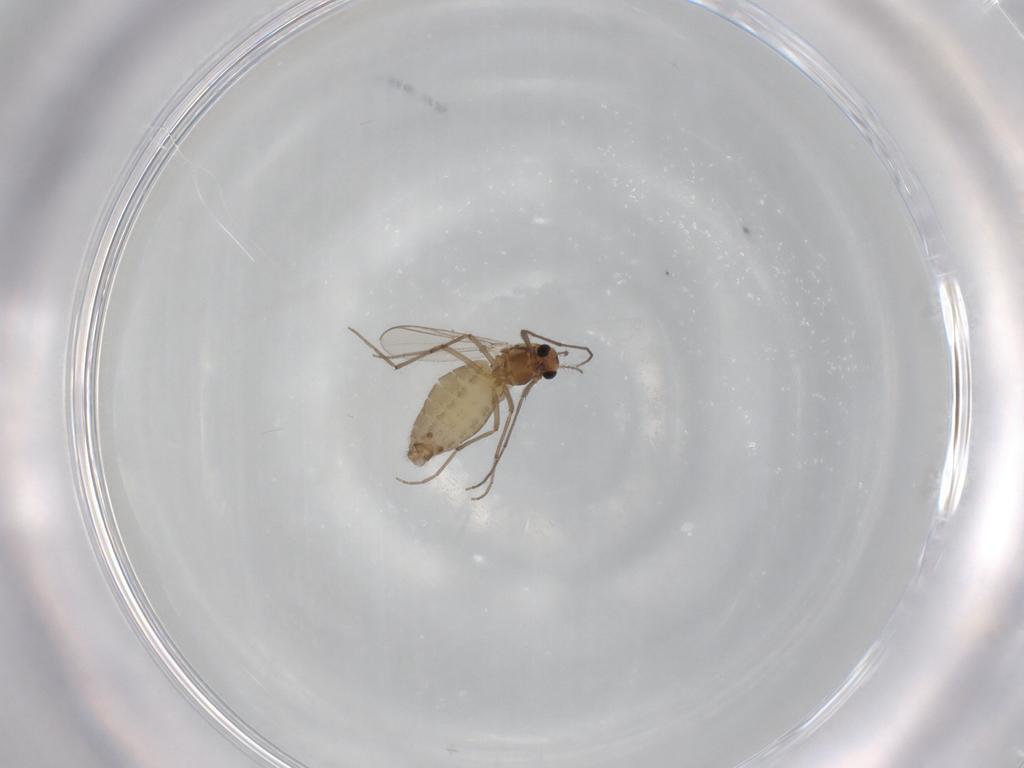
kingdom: Animalia
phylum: Arthropoda
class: Insecta
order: Diptera
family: Chironomidae
